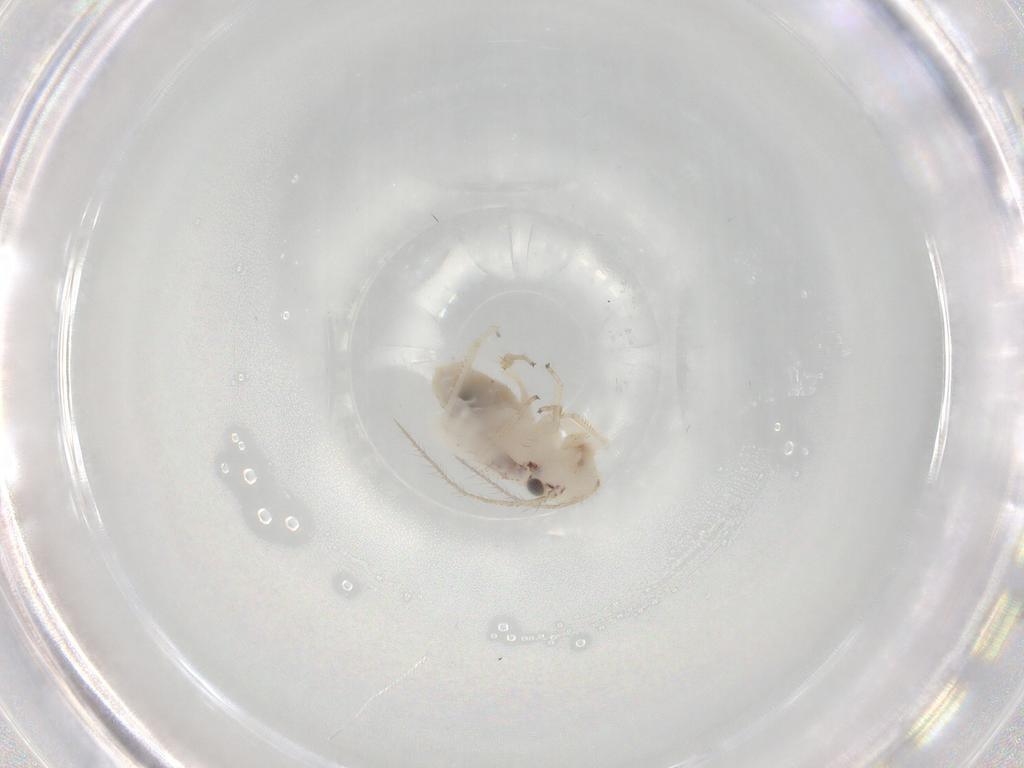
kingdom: Animalia
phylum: Arthropoda
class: Insecta
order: Psocodea
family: Pseudocaeciliidae
